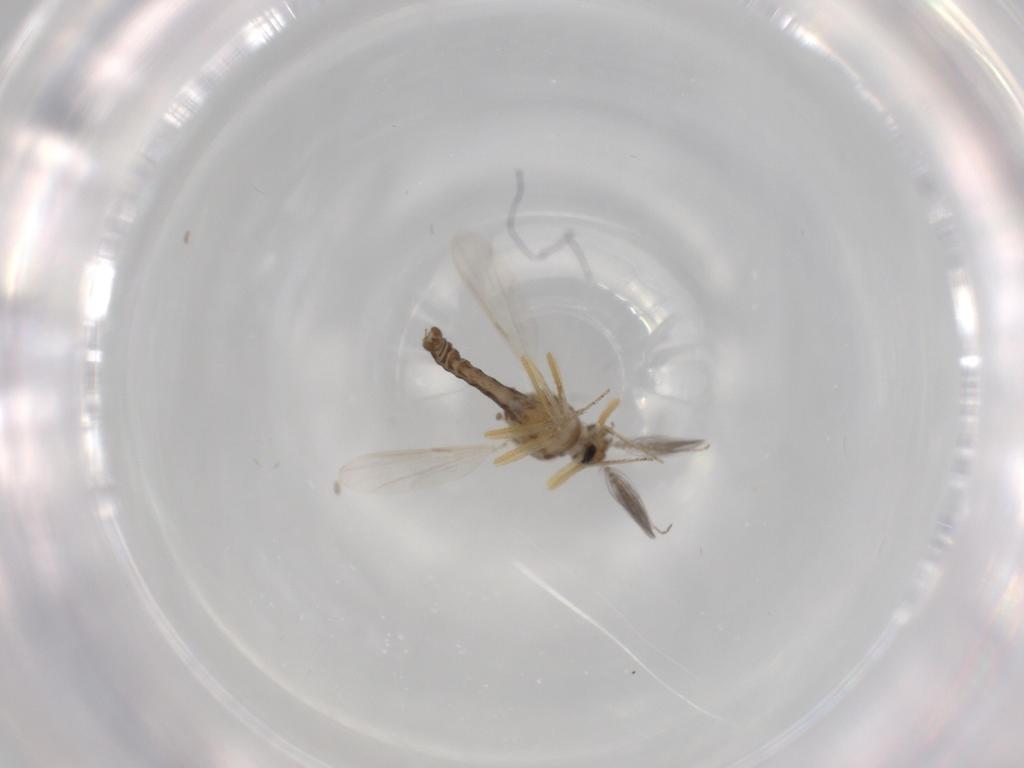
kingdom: Animalia
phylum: Arthropoda
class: Insecta
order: Diptera
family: Ceratopogonidae
